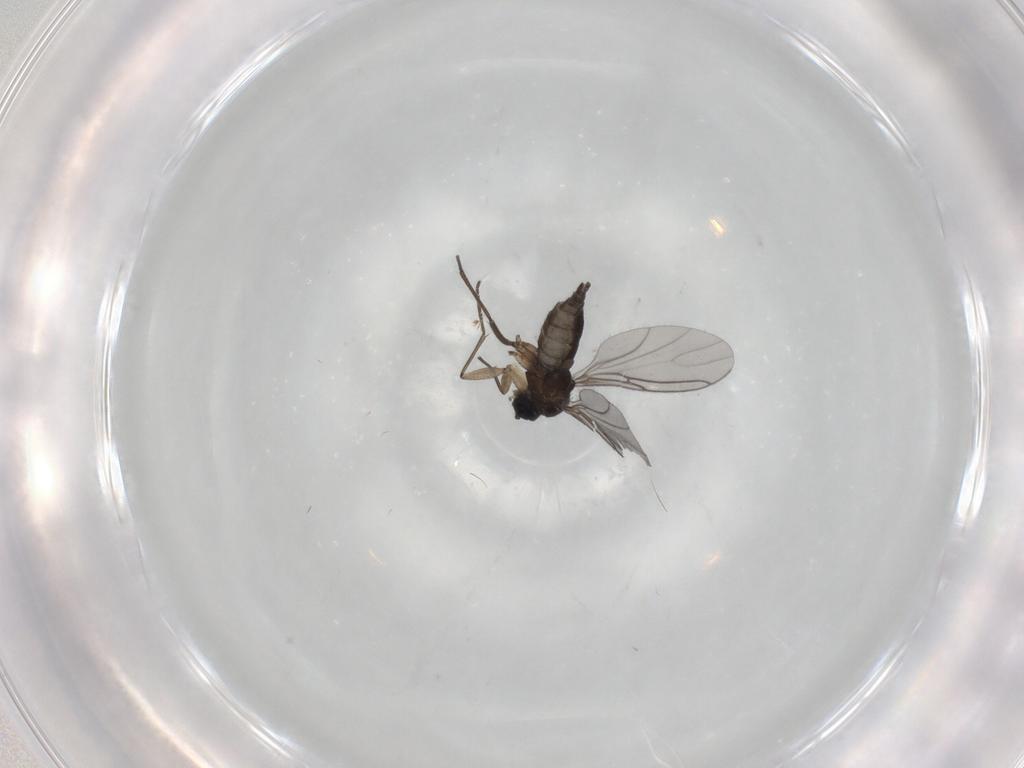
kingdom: Animalia
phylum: Arthropoda
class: Insecta
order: Diptera
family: Sciaridae
